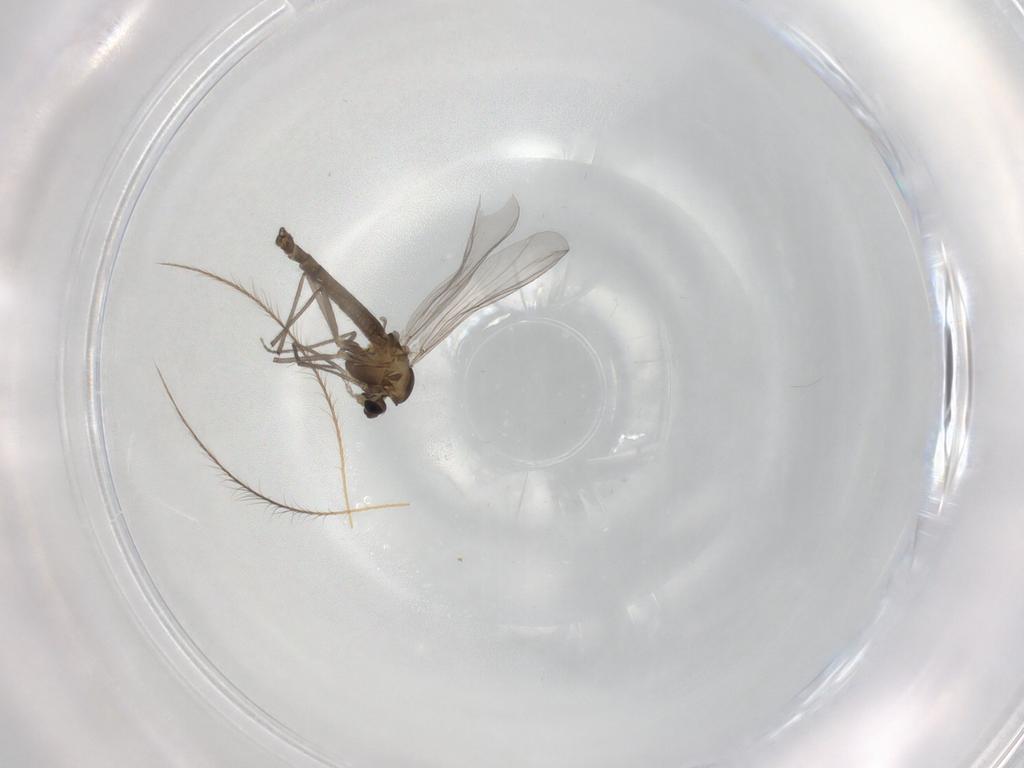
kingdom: Animalia
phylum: Arthropoda
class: Insecta
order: Diptera
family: Chironomidae
